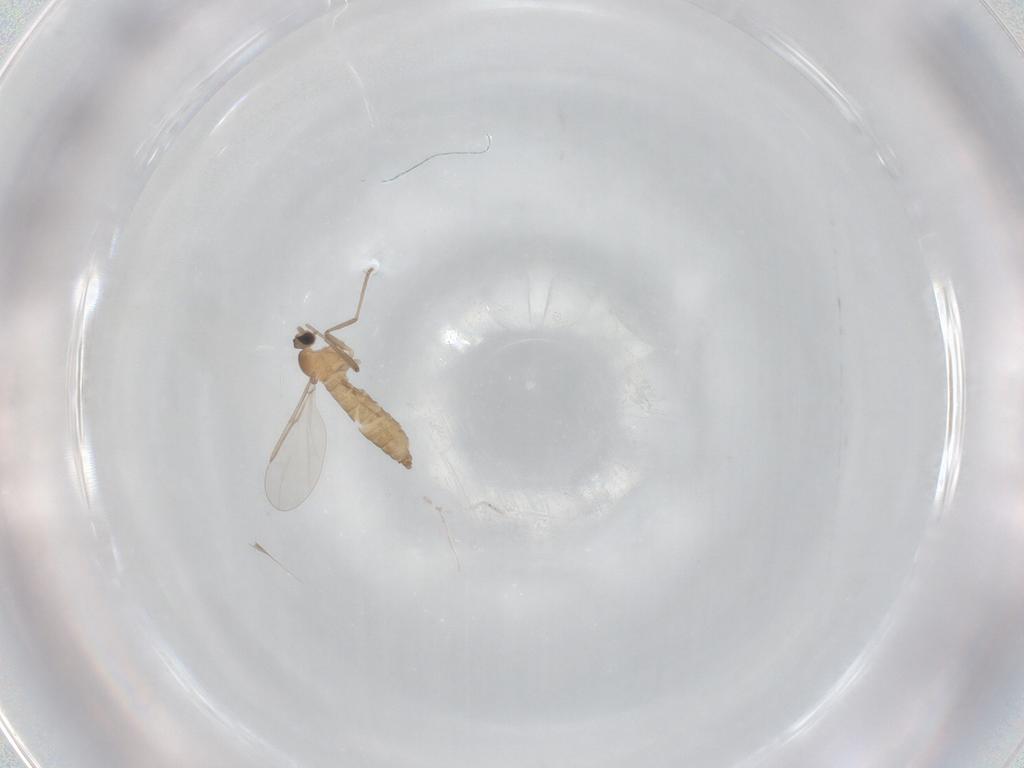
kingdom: Animalia
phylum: Arthropoda
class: Insecta
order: Diptera
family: Cecidomyiidae
